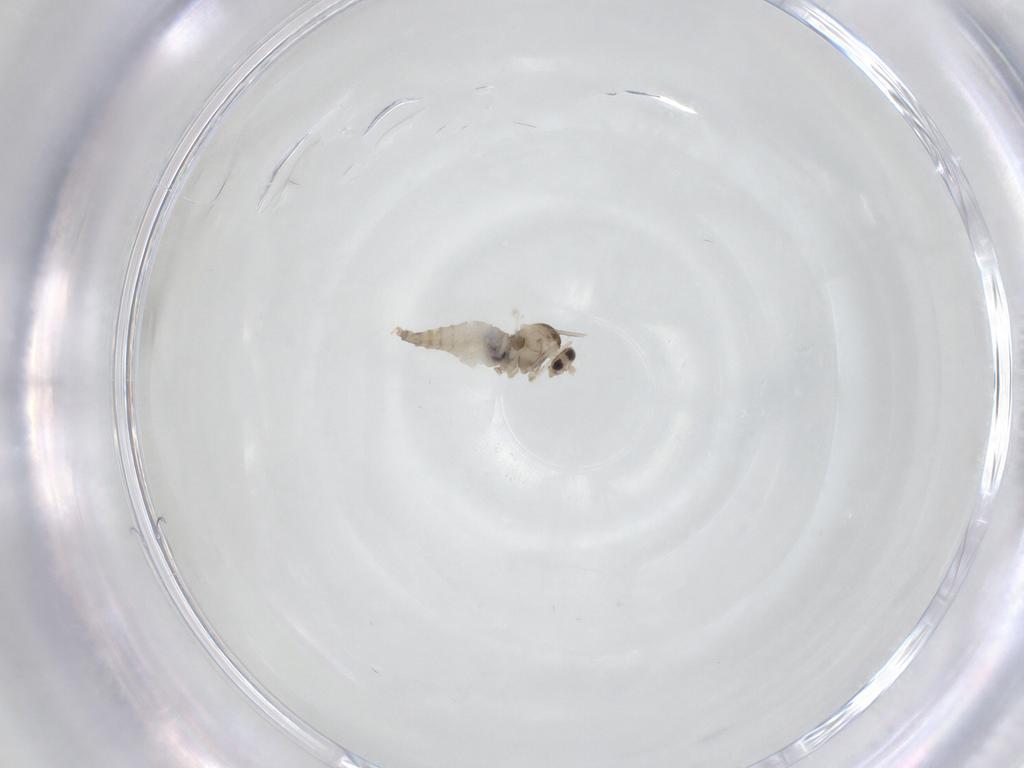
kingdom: Animalia
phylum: Arthropoda
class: Insecta
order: Diptera
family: Cecidomyiidae
